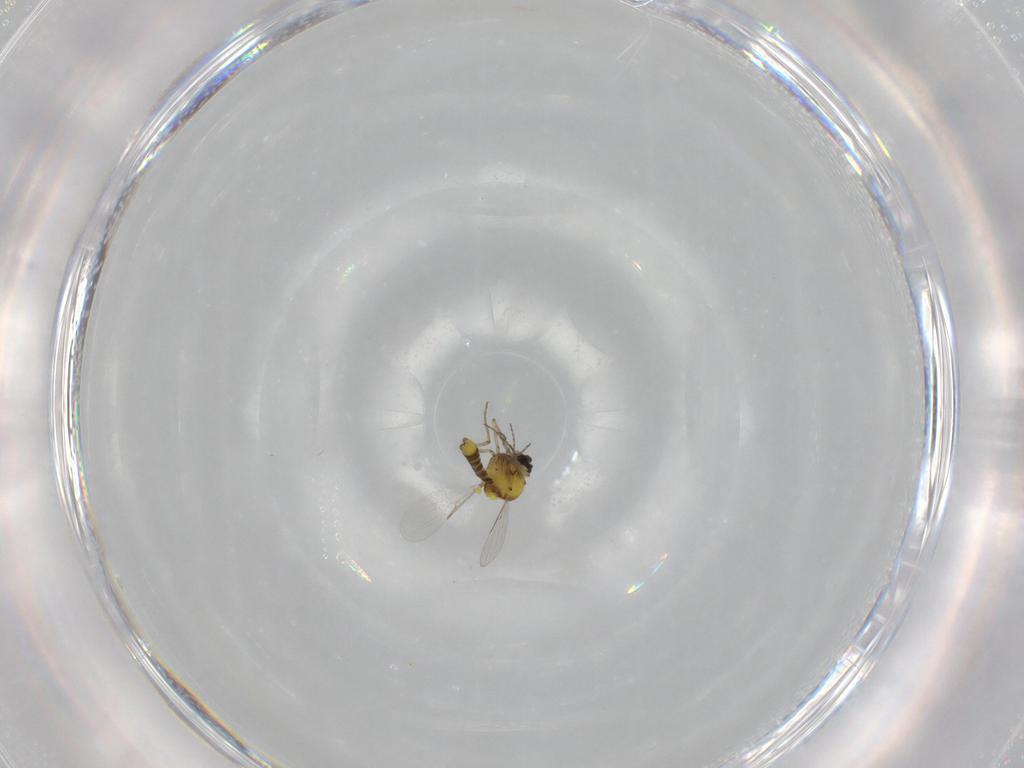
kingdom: Animalia
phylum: Arthropoda
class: Insecta
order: Diptera
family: Ceratopogonidae
